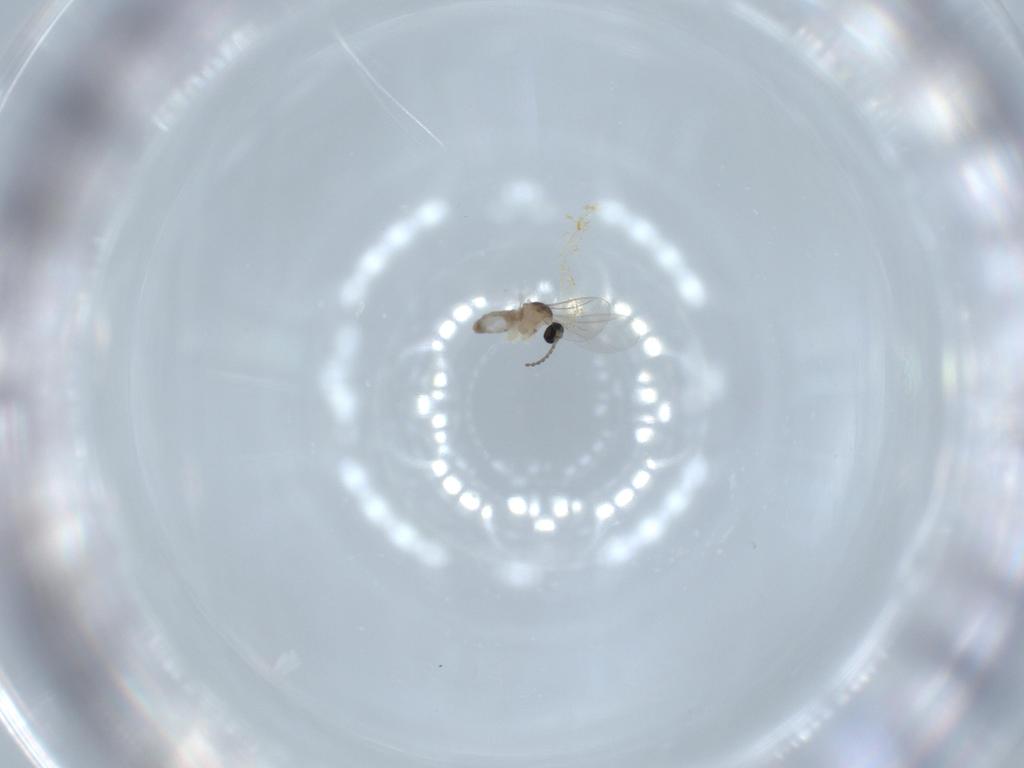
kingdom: Animalia
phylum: Arthropoda
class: Insecta
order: Diptera
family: Cecidomyiidae
